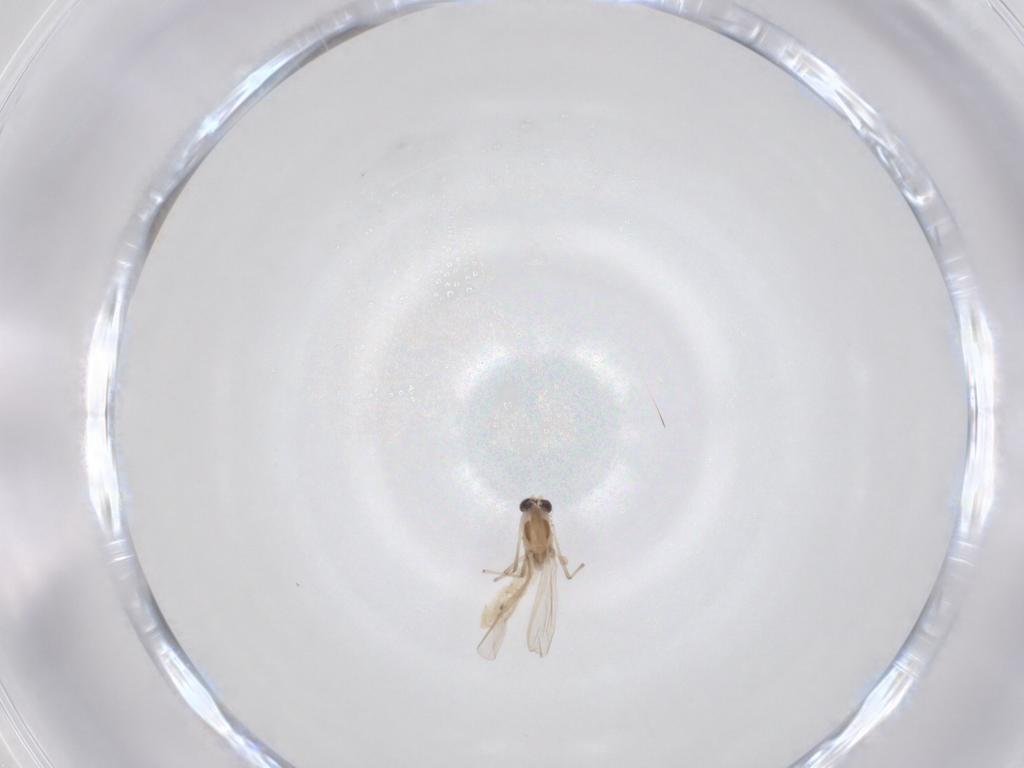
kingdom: Animalia
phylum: Arthropoda
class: Insecta
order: Diptera
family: Chironomidae
